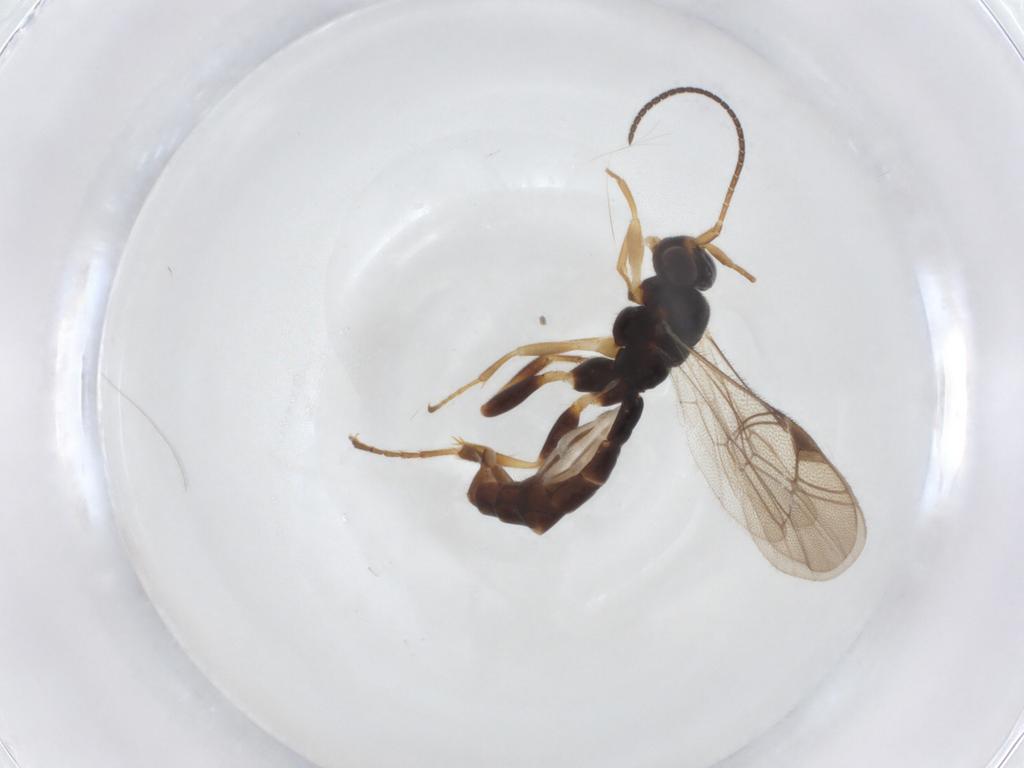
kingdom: Animalia
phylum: Arthropoda
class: Insecta
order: Hymenoptera
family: Ichneumonidae
